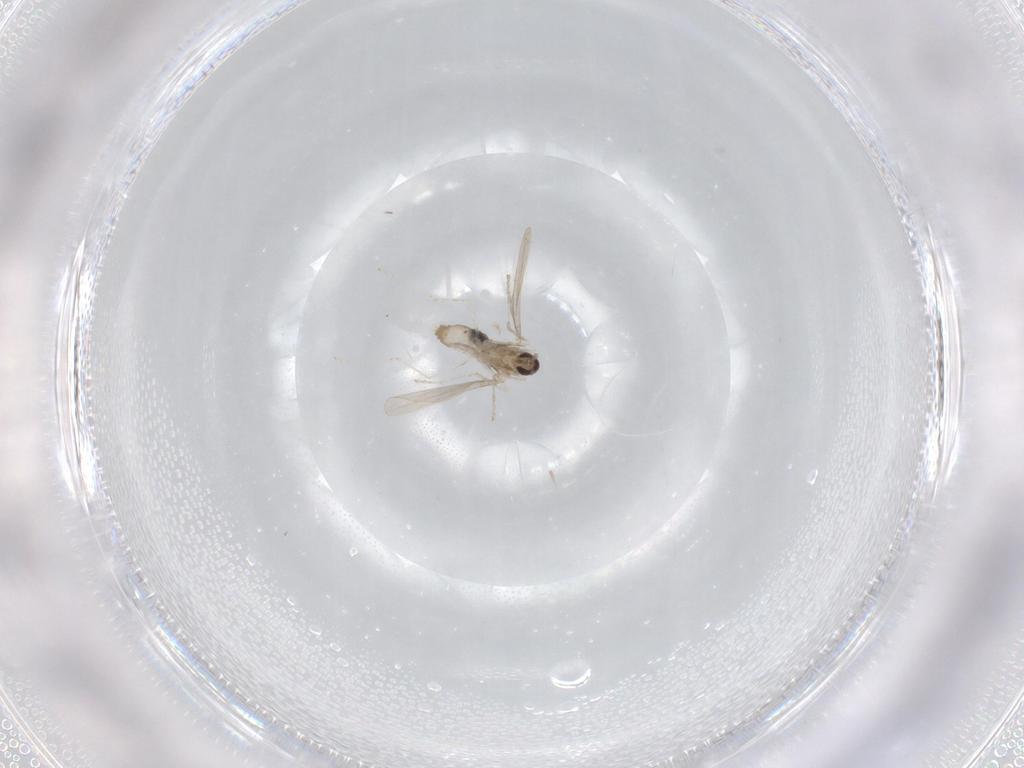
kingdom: Animalia
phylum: Arthropoda
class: Insecta
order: Diptera
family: Cecidomyiidae
